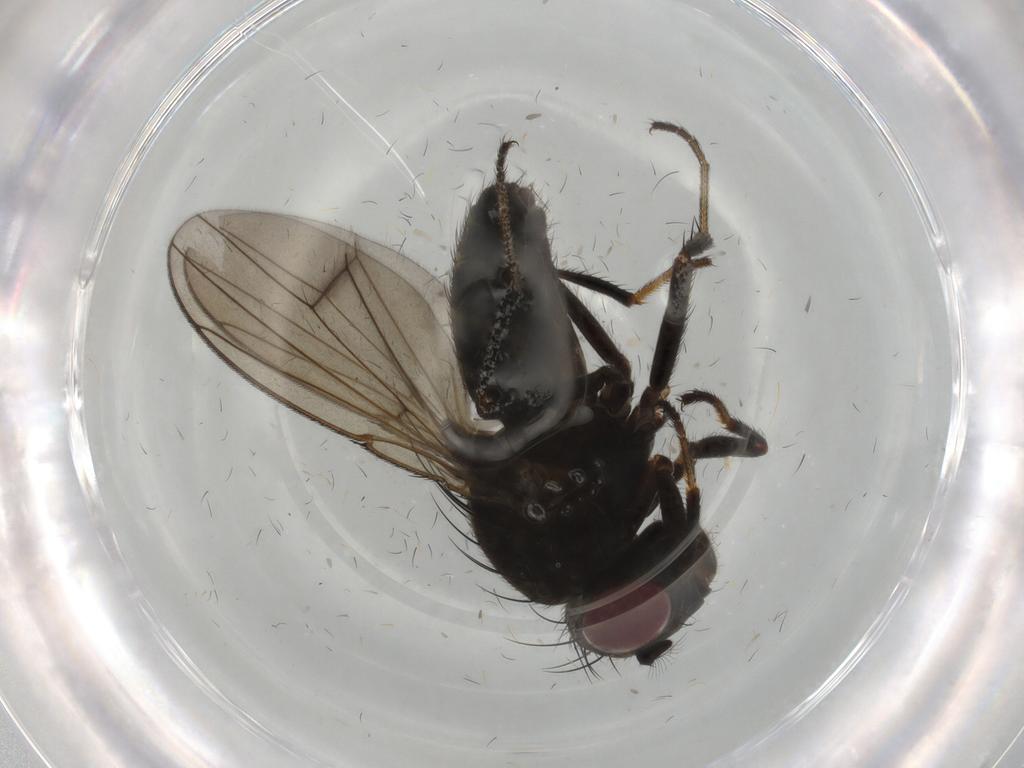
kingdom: Animalia
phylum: Arthropoda
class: Insecta
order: Diptera
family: Ephydridae
